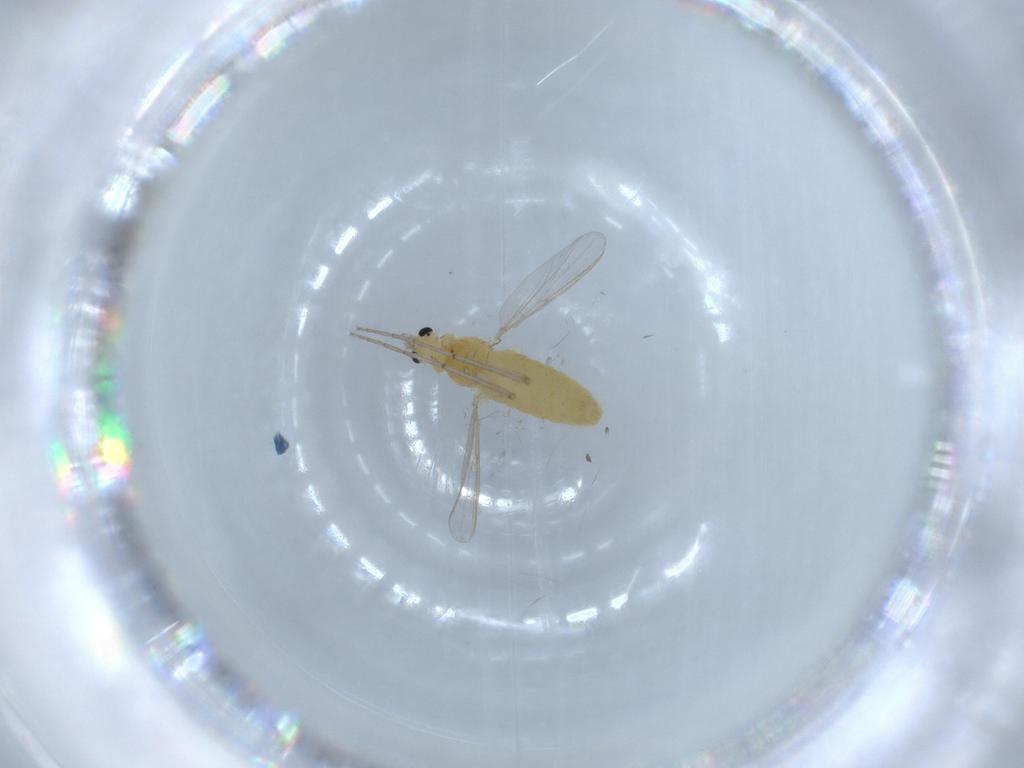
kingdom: Animalia
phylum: Arthropoda
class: Insecta
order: Diptera
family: Chironomidae
